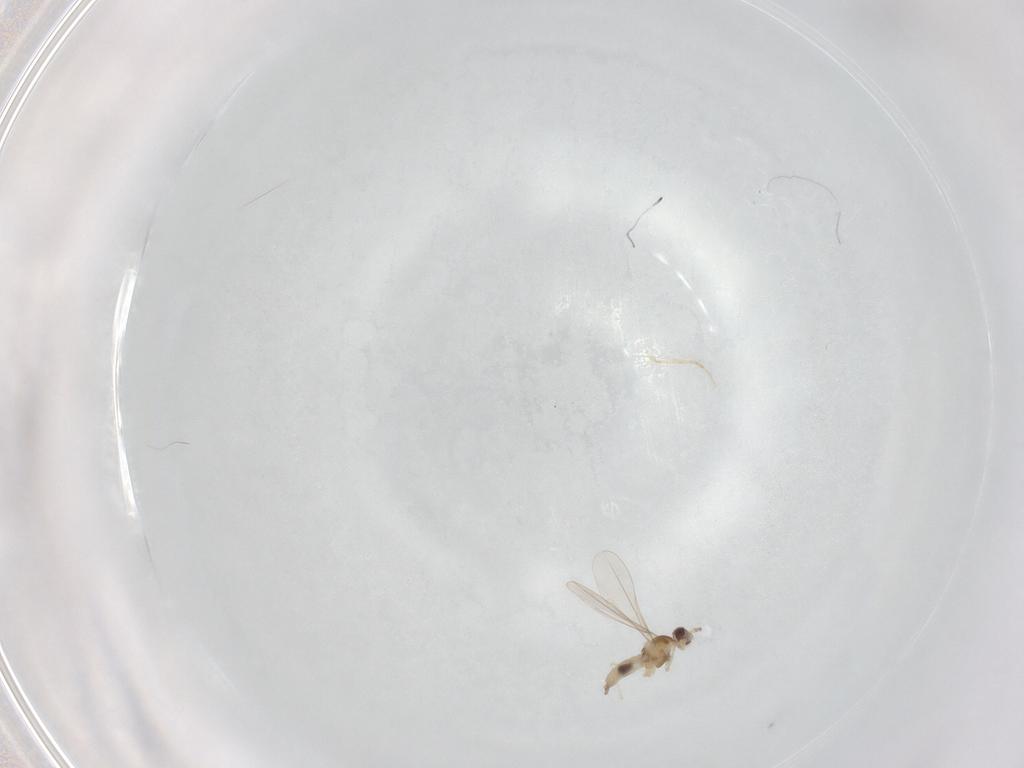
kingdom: Animalia
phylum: Arthropoda
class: Insecta
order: Diptera
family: Cecidomyiidae
